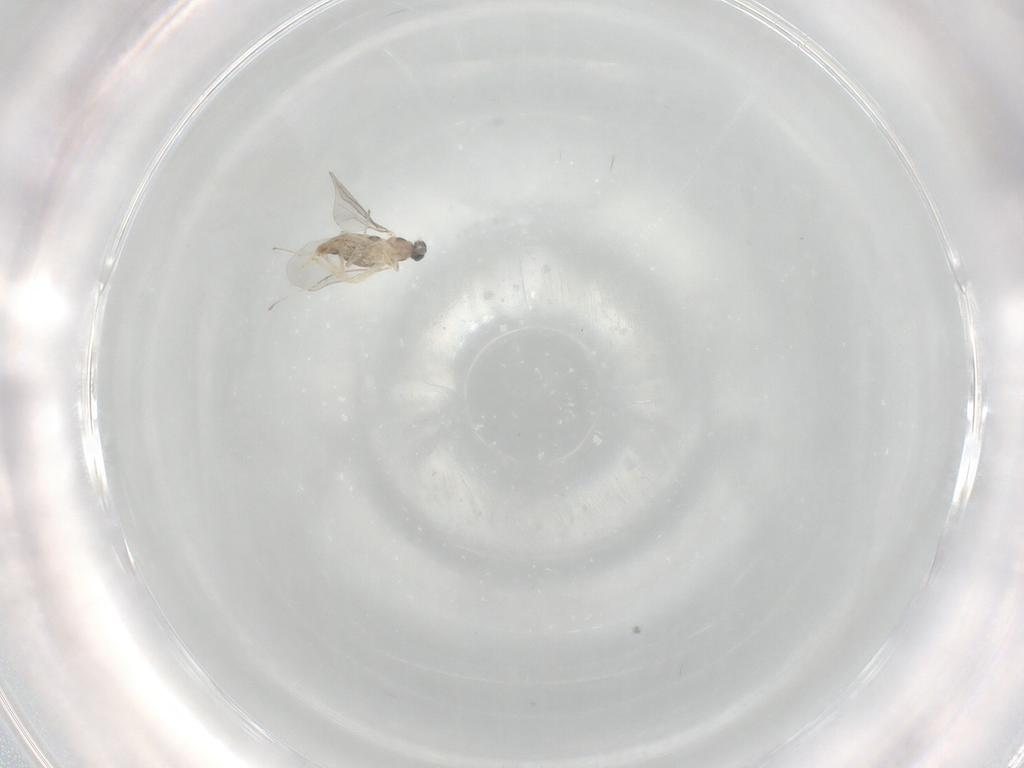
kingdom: Animalia
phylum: Arthropoda
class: Insecta
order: Diptera
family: Cecidomyiidae
